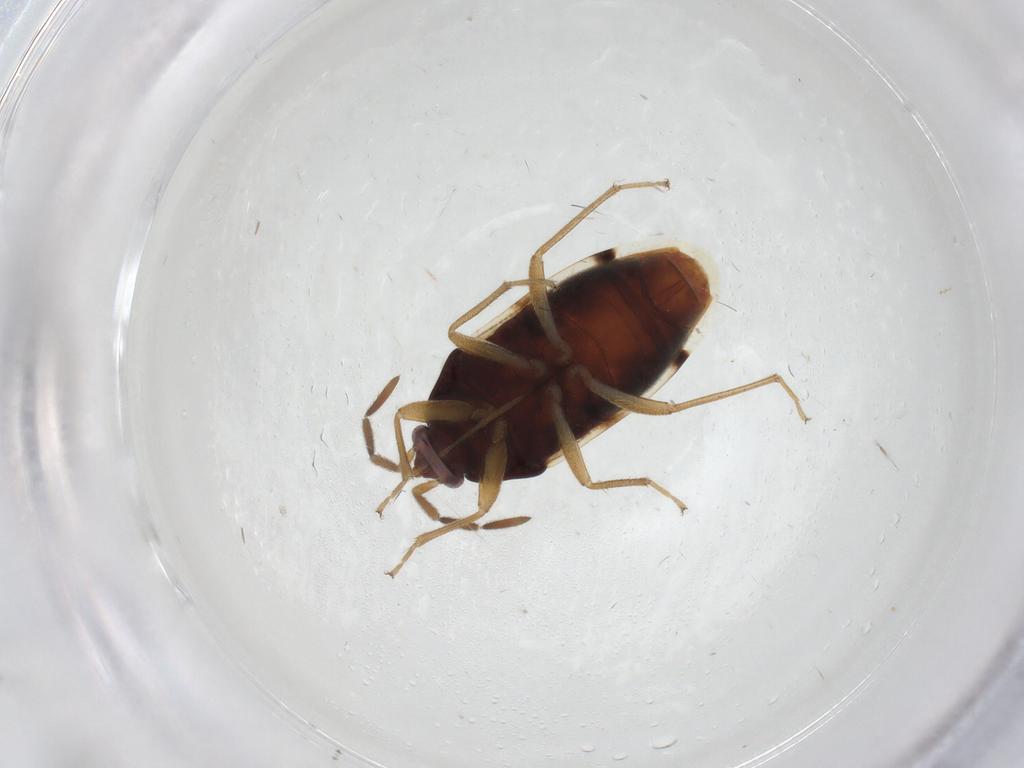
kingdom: Animalia
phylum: Arthropoda
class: Insecta
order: Hemiptera
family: Rhyparochromidae
